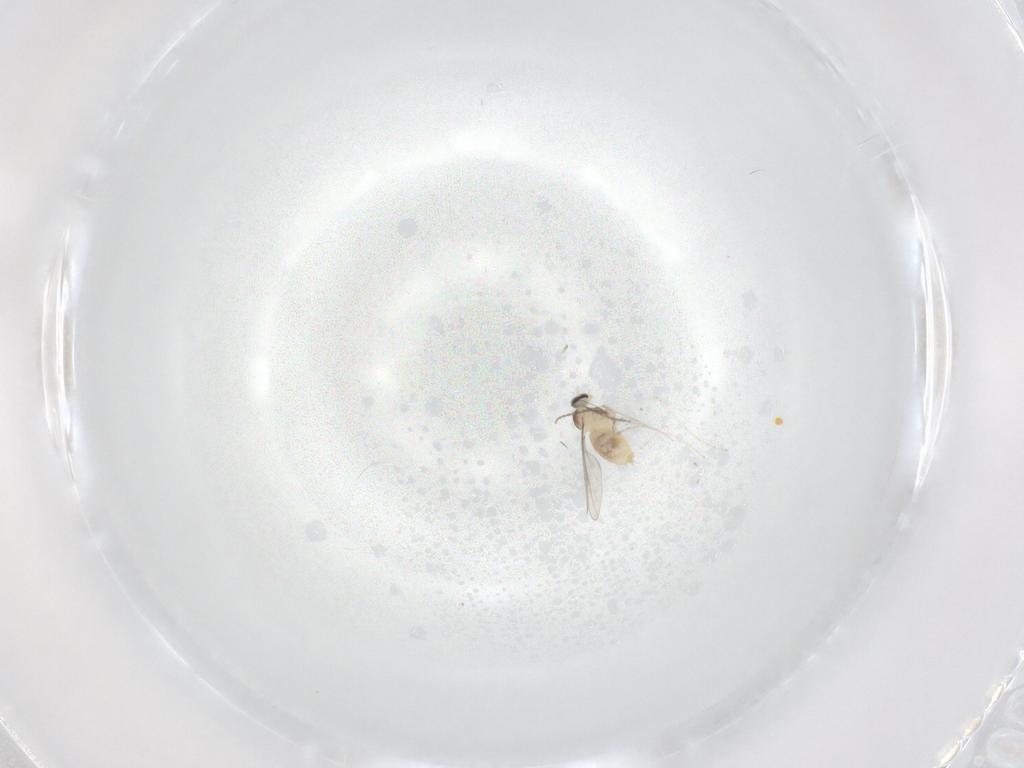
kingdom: Animalia
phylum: Arthropoda
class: Insecta
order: Diptera
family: Cecidomyiidae
